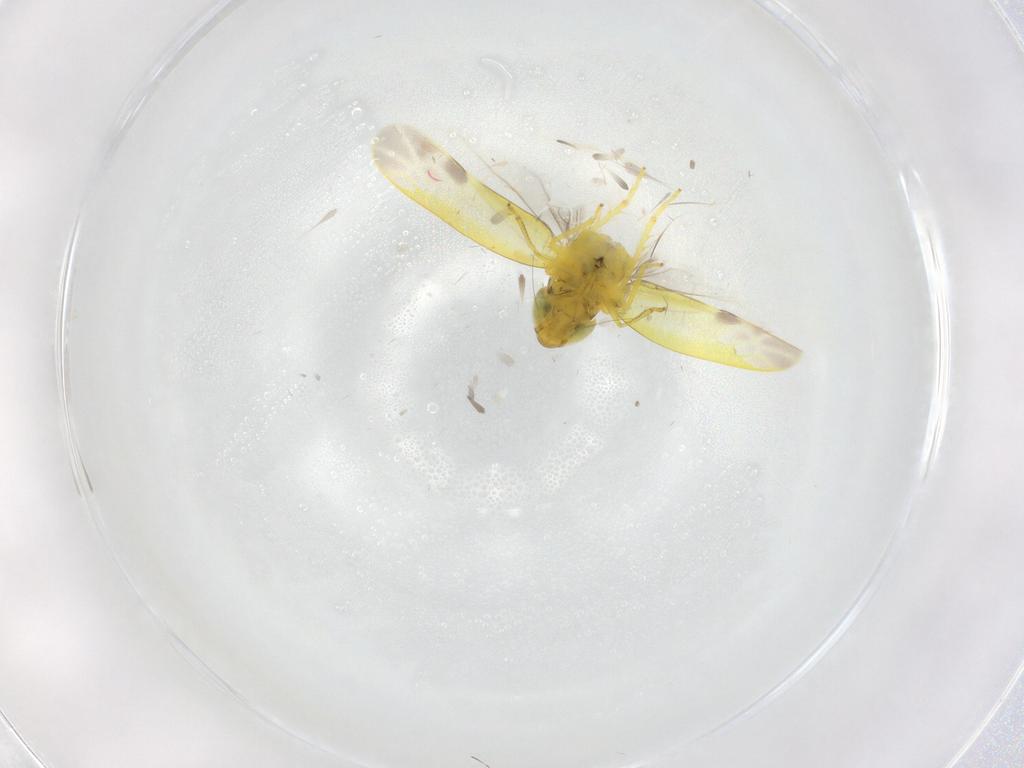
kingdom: Animalia
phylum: Arthropoda
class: Insecta
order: Hemiptera
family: Cicadellidae
